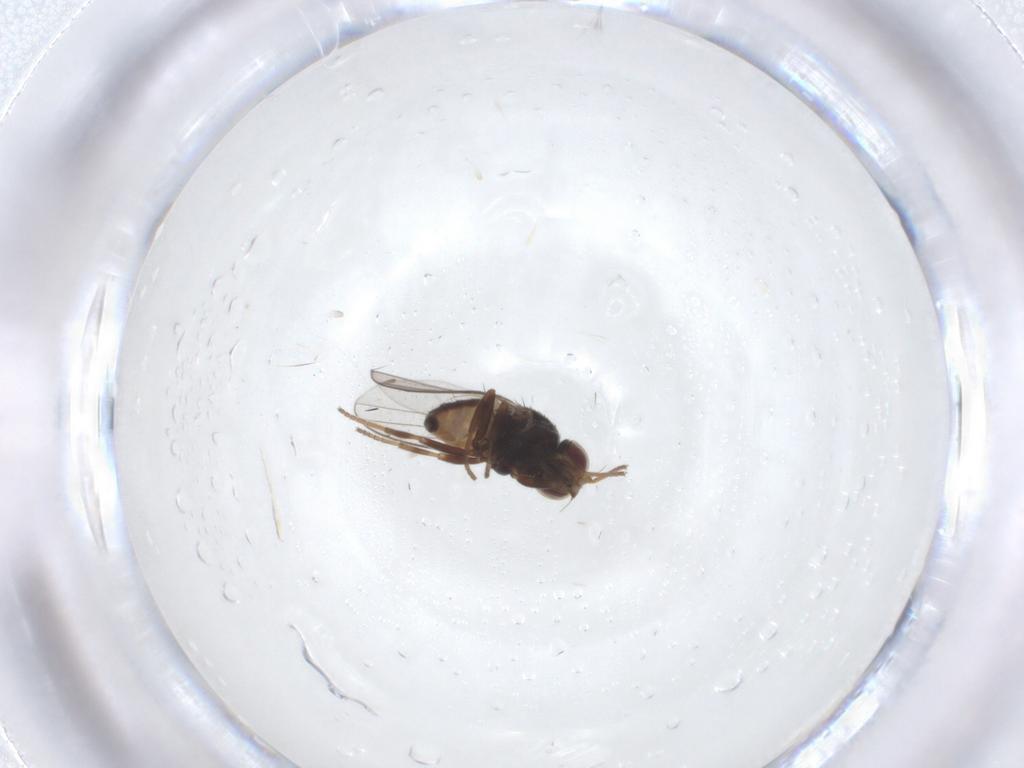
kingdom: Animalia
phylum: Arthropoda
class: Insecta
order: Diptera
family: Chloropidae
